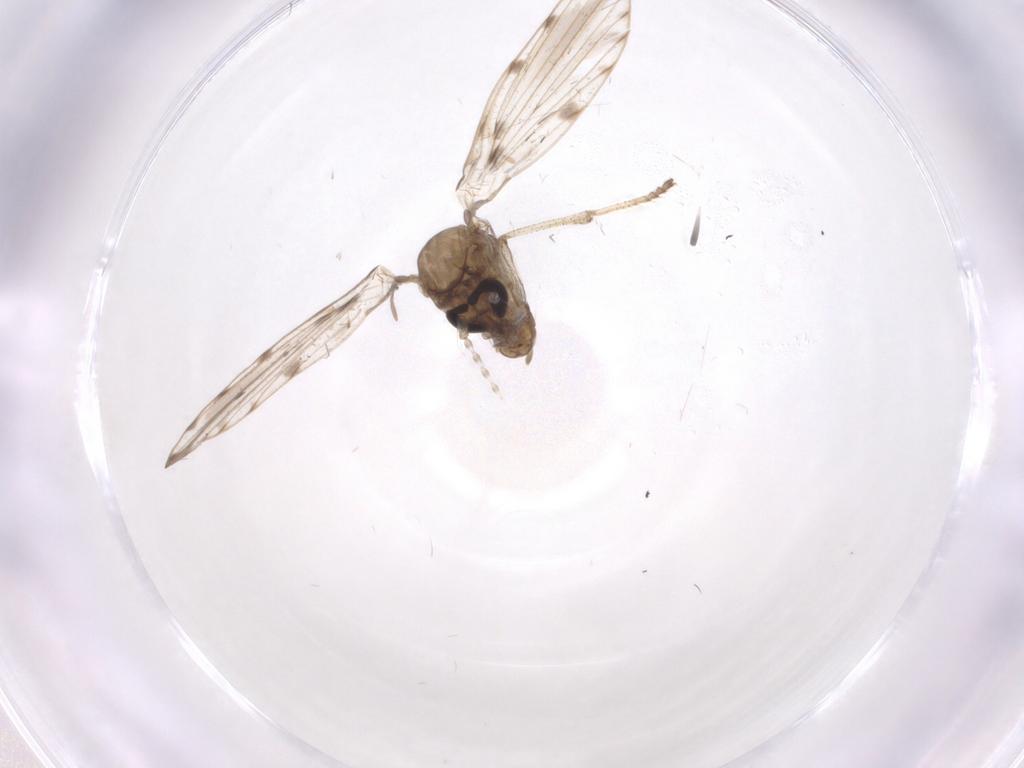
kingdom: Animalia
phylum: Arthropoda
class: Insecta
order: Diptera
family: Psychodidae
